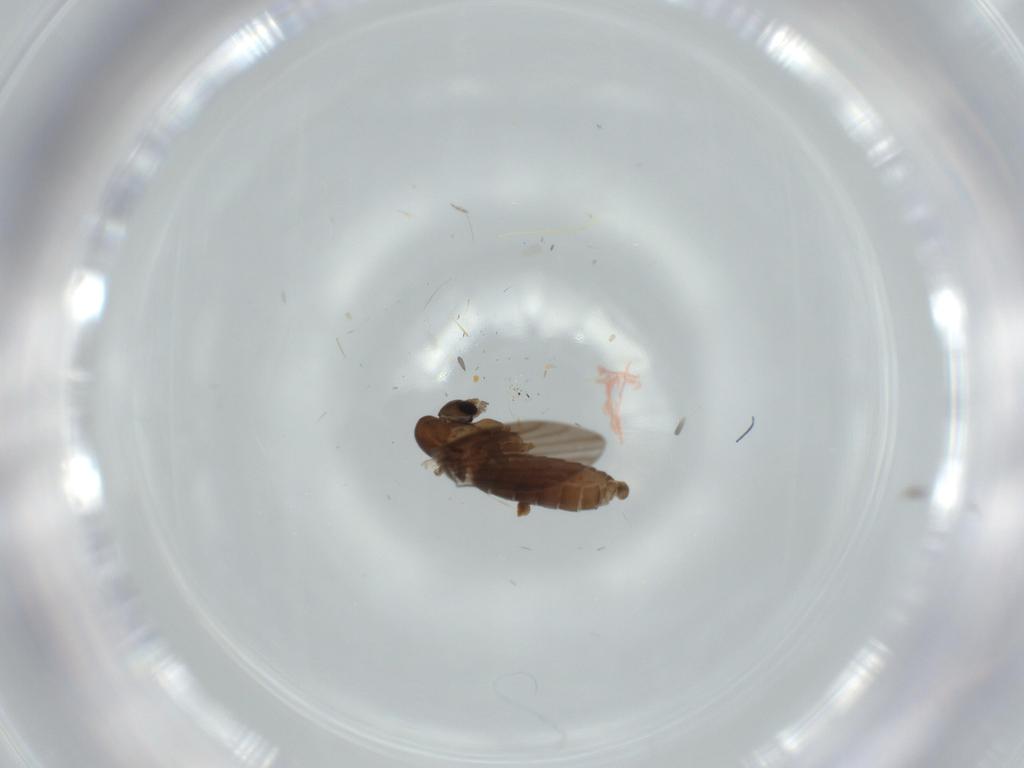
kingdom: Animalia
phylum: Arthropoda
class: Insecta
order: Diptera
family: Psychodidae
